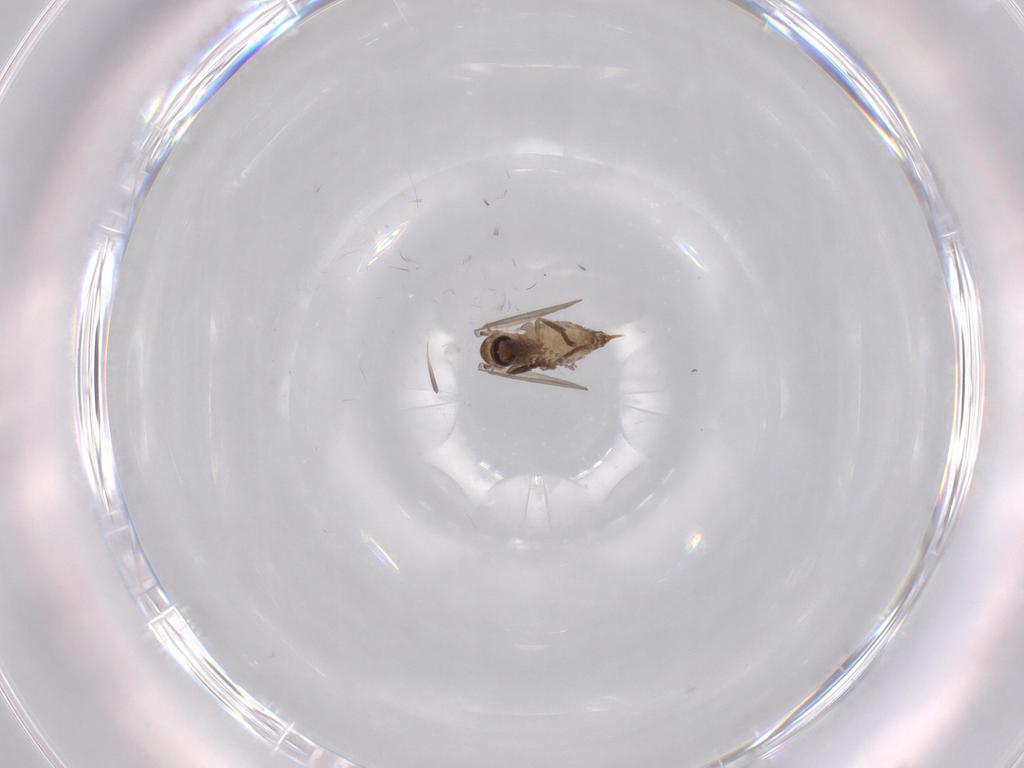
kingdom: Animalia
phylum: Arthropoda
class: Insecta
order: Diptera
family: Psychodidae
